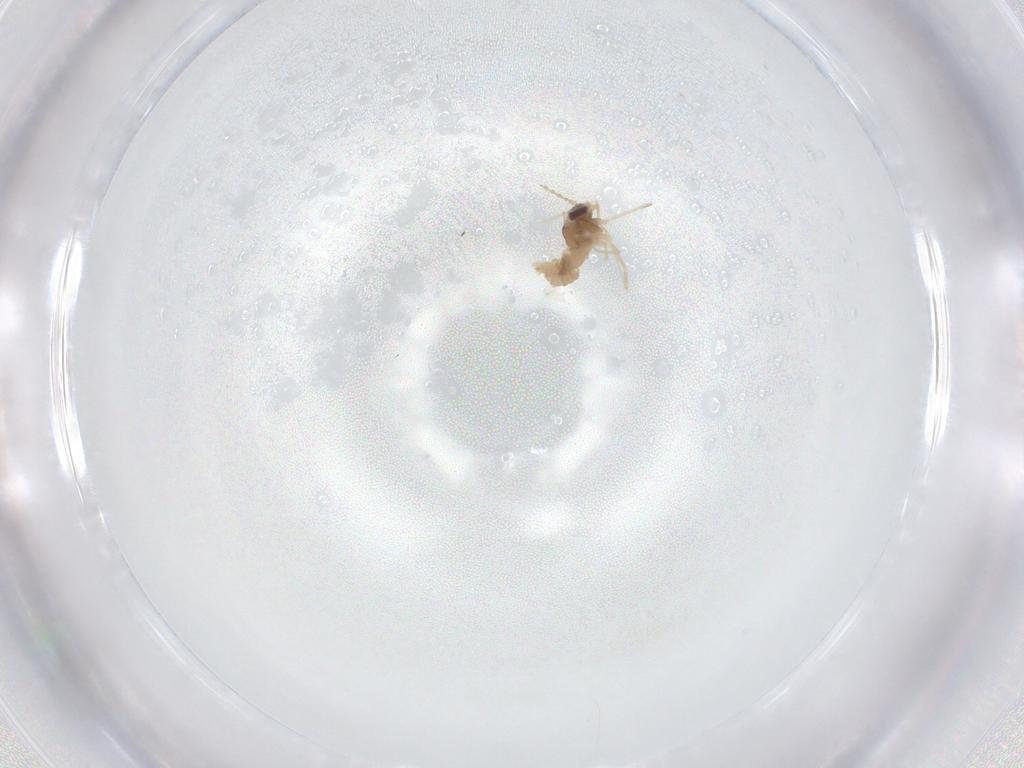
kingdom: Animalia
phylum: Arthropoda
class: Insecta
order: Diptera
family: Cecidomyiidae
